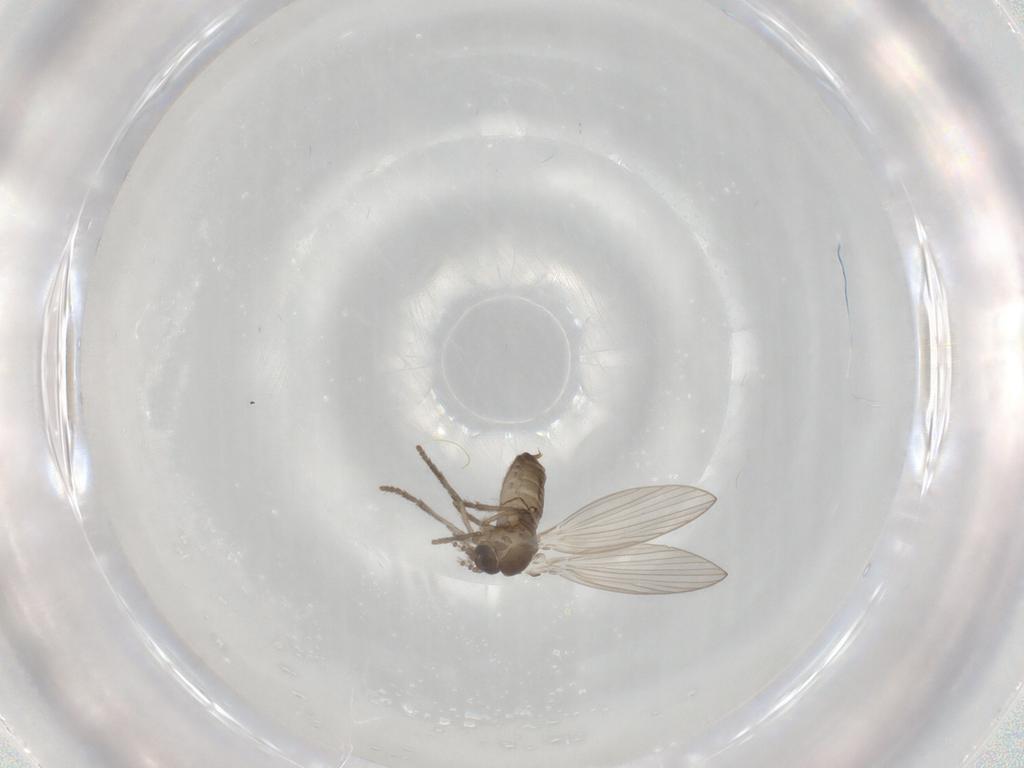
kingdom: Animalia
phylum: Arthropoda
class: Insecta
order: Diptera
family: Psychodidae
